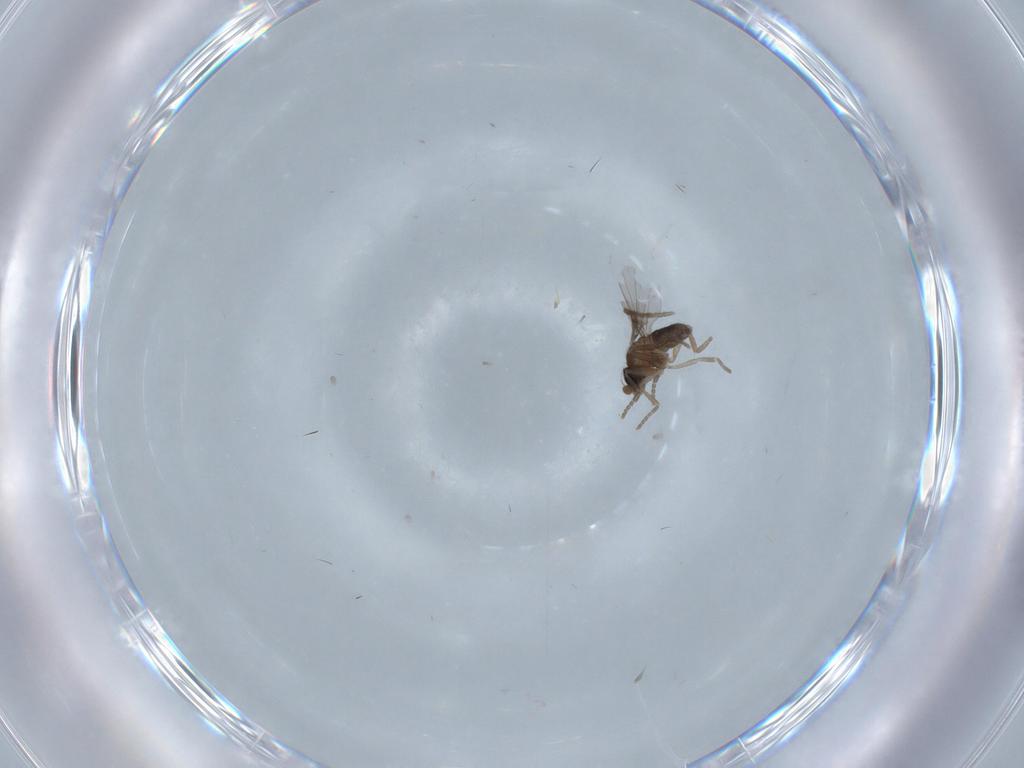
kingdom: Animalia
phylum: Arthropoda
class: Insecta
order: Diptera
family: Phoridae
